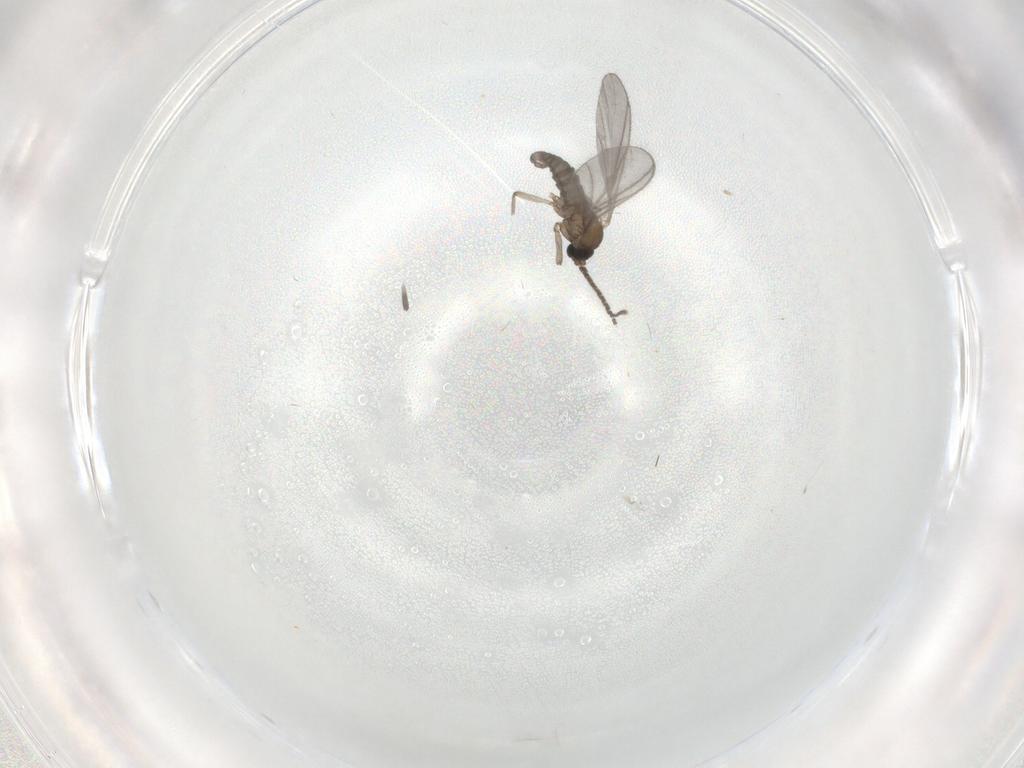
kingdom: Animalia
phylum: Arthropoda
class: Insecta
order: Diptera
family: Sciaridae
